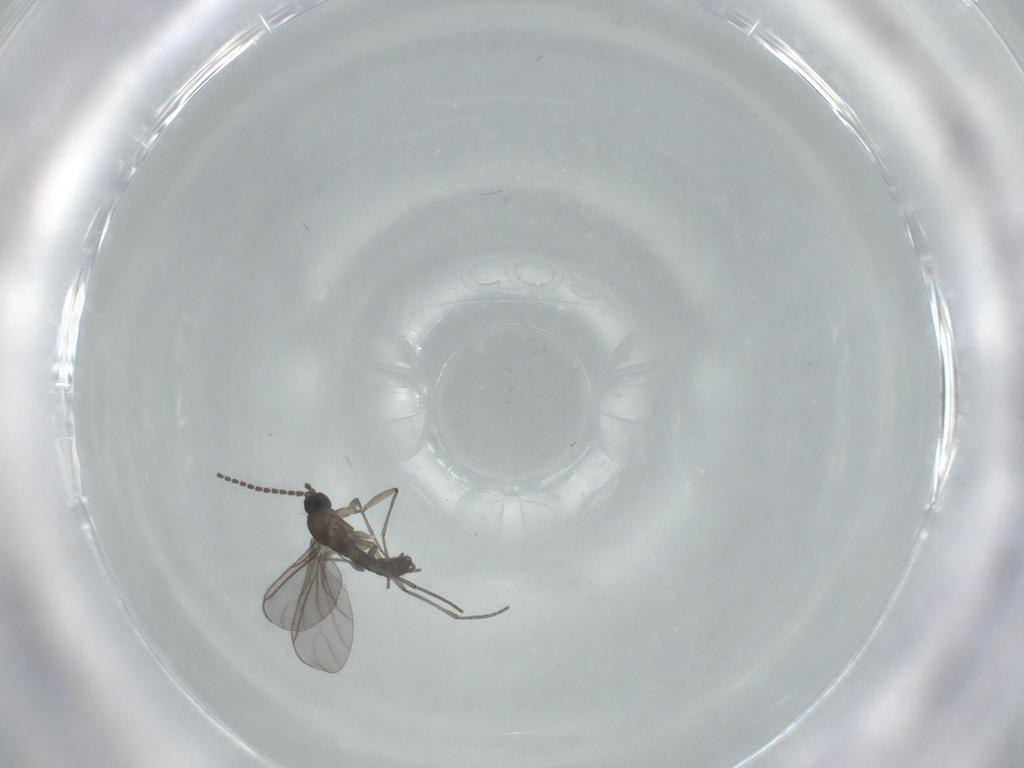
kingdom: Animalia
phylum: Arthropoda
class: Insecta
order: Diptera
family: Sciaridae
